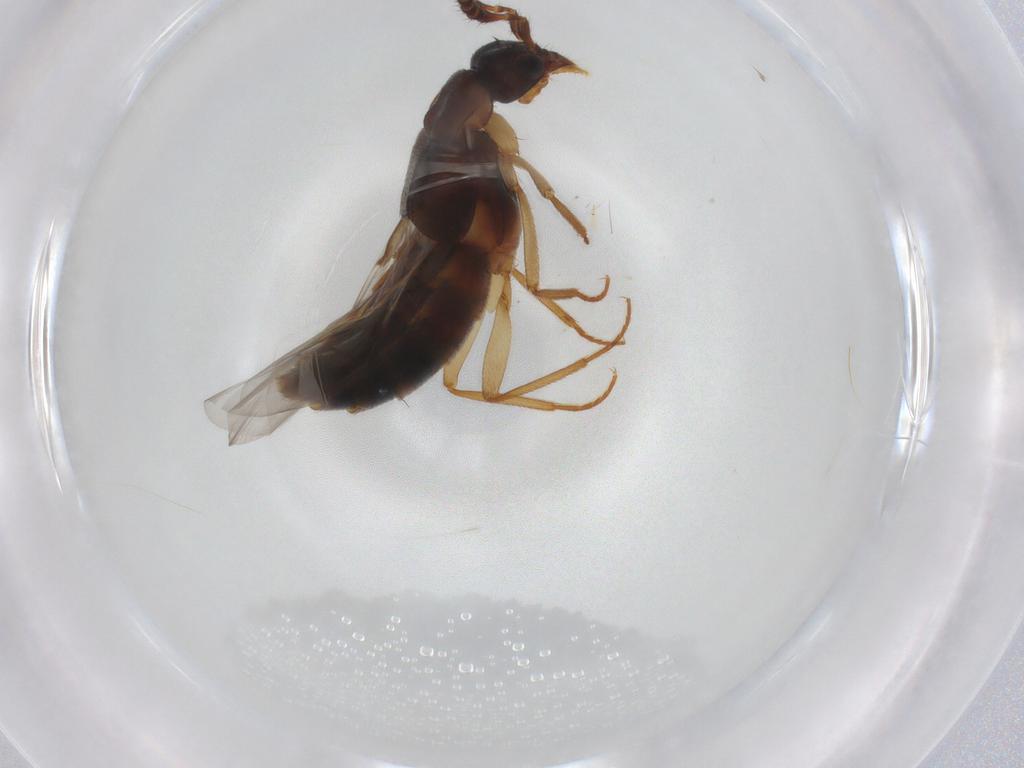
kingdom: Animalia
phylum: Arthropoda
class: Insecta
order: Coleoptera
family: Staphylinidae
